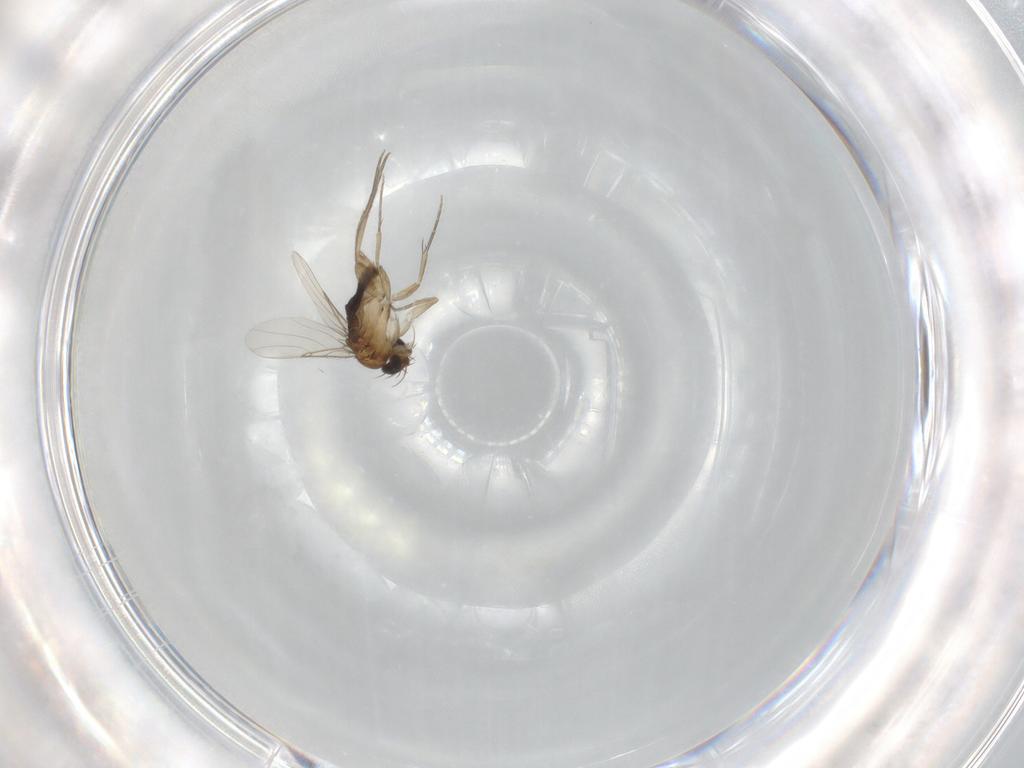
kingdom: Animalia
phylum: Arthropoda
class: Insecta
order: Diptera
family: Phoridae
